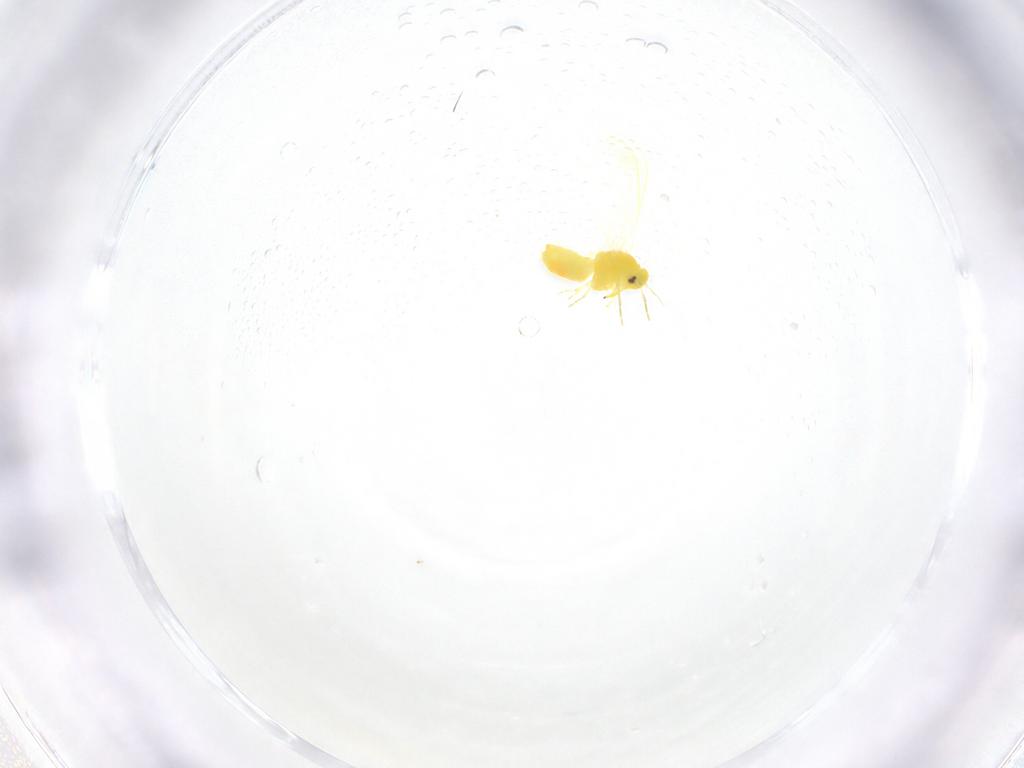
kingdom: Animalia
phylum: Arthropoda
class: Insecta
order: Hemiptera
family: Aleyrodidae
